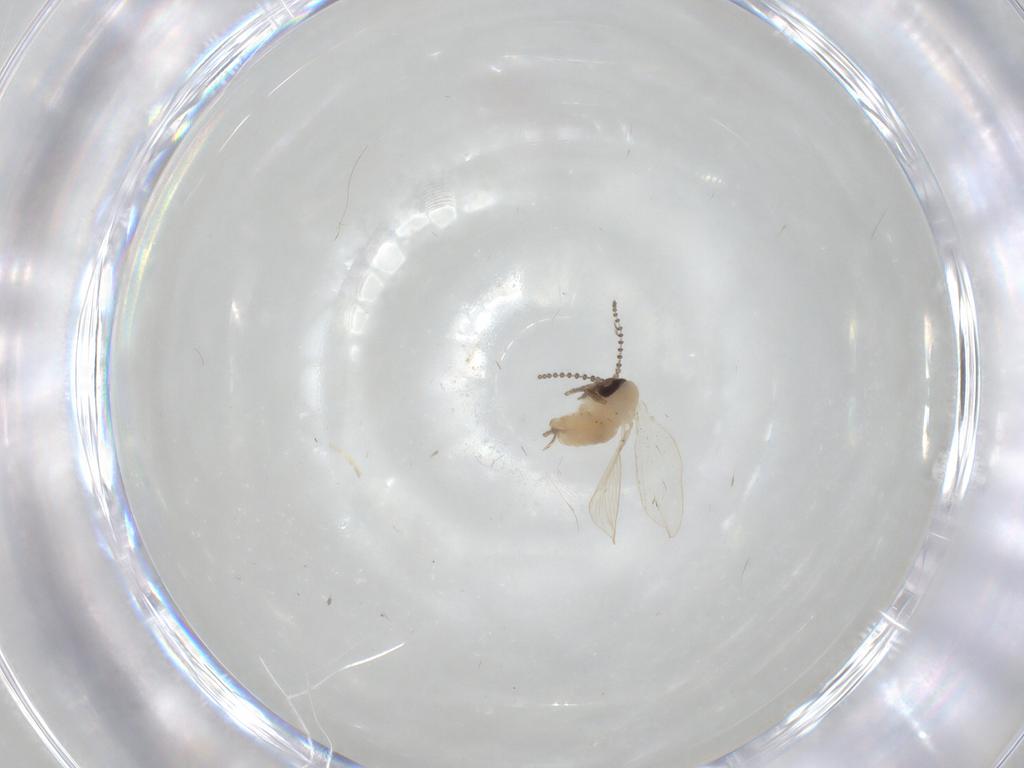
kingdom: Animalia
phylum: Arthropoda
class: Insecta
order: Diptera
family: Psychodidae
